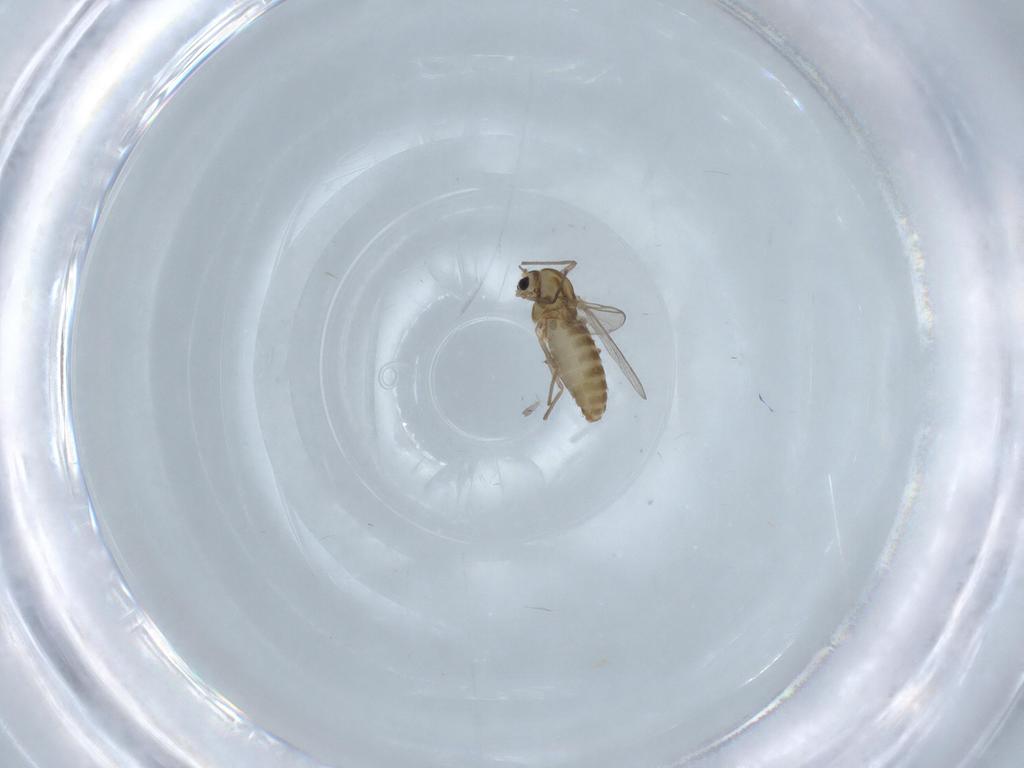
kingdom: Animalia
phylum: Arthropoda
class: Insecta
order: Diptera
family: Chironomidae
